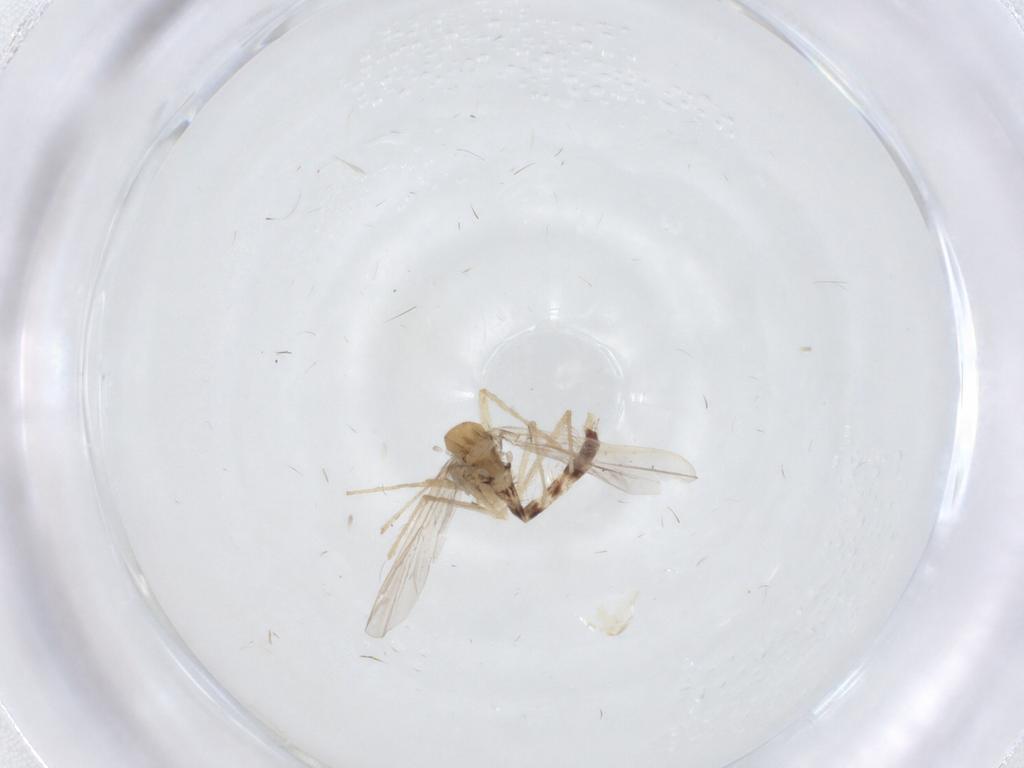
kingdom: Animalia
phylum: Arthropoda
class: Insecta
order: Diptera
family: Chironomidae
